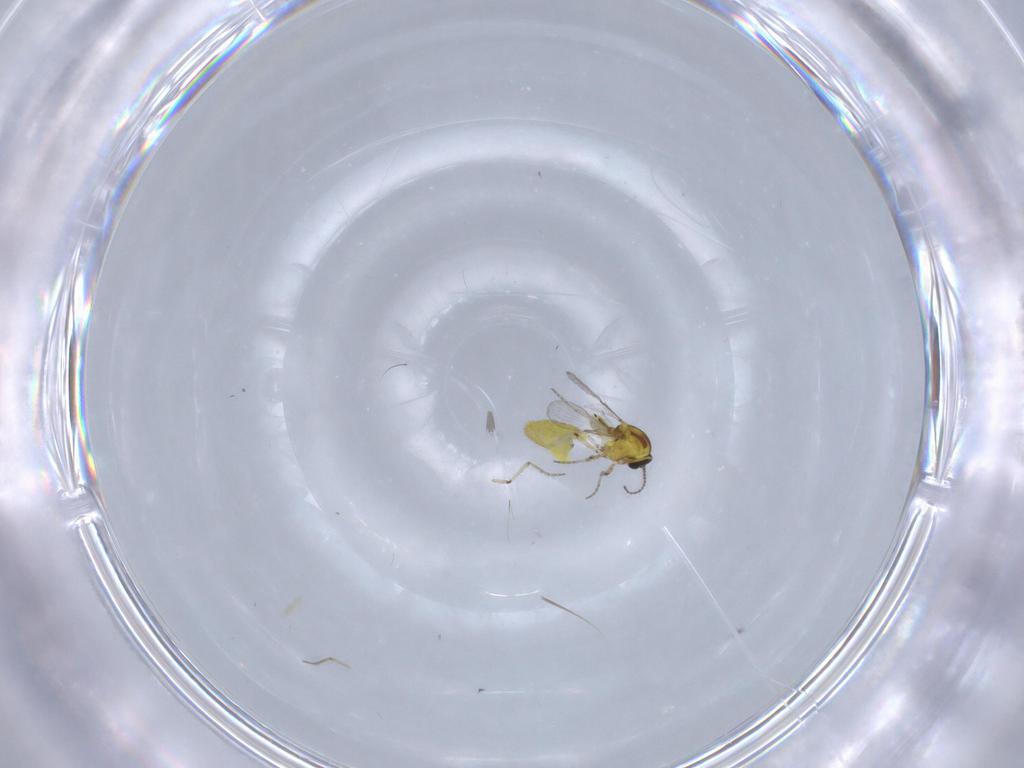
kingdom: Animalia
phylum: Arthropoda
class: Insecta
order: Diptera
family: Ceratopogonidae
